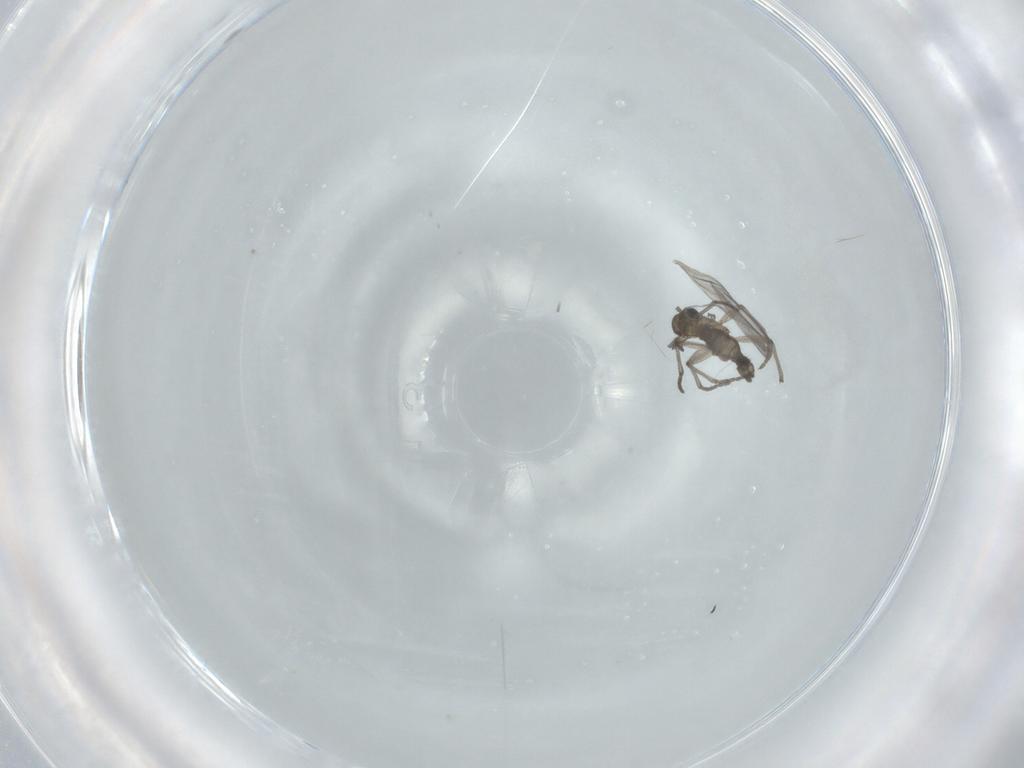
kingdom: Animalia
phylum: Arthropoda
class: Insecta
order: Diptera
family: Sciaridae
